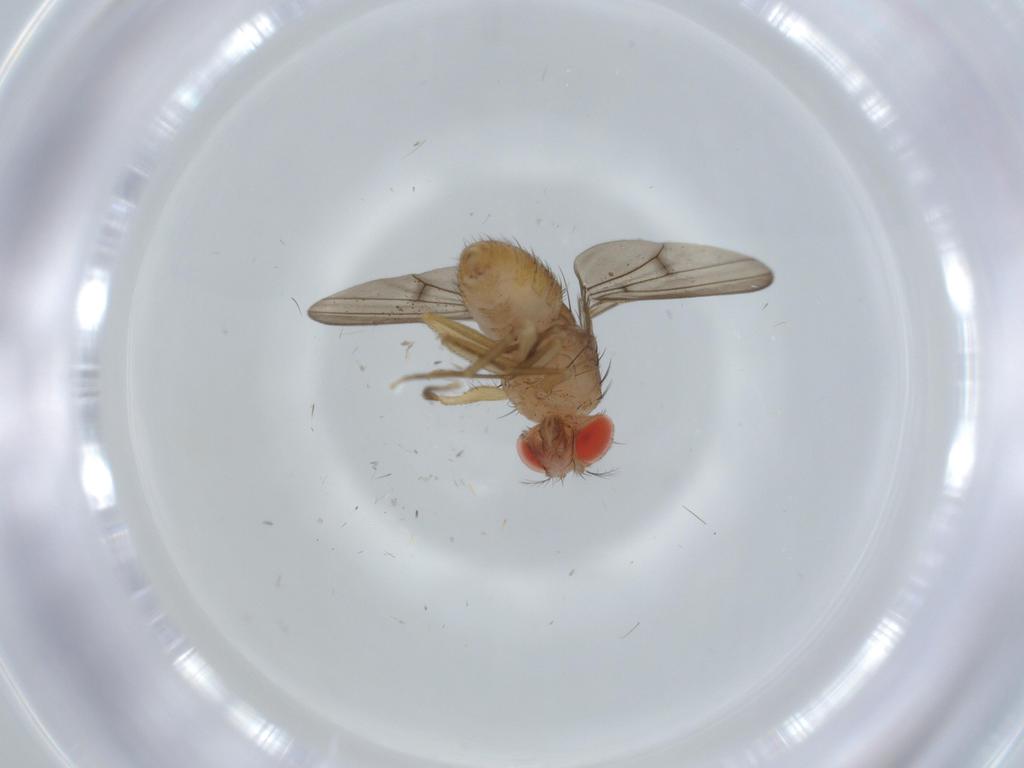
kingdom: Animalia
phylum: Arthropoda
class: Insecta
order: Diptera
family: Drosophilidae
